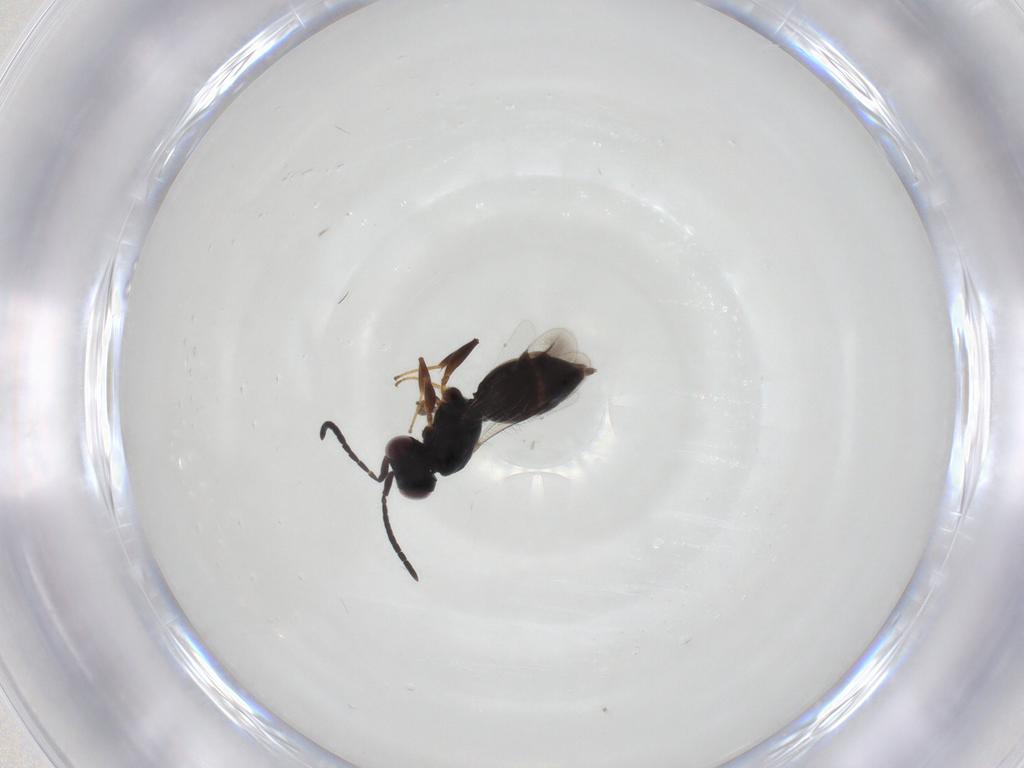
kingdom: Animalia
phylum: Arthropoda
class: Insecta
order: Hymenoptera
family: Megaspilidae
